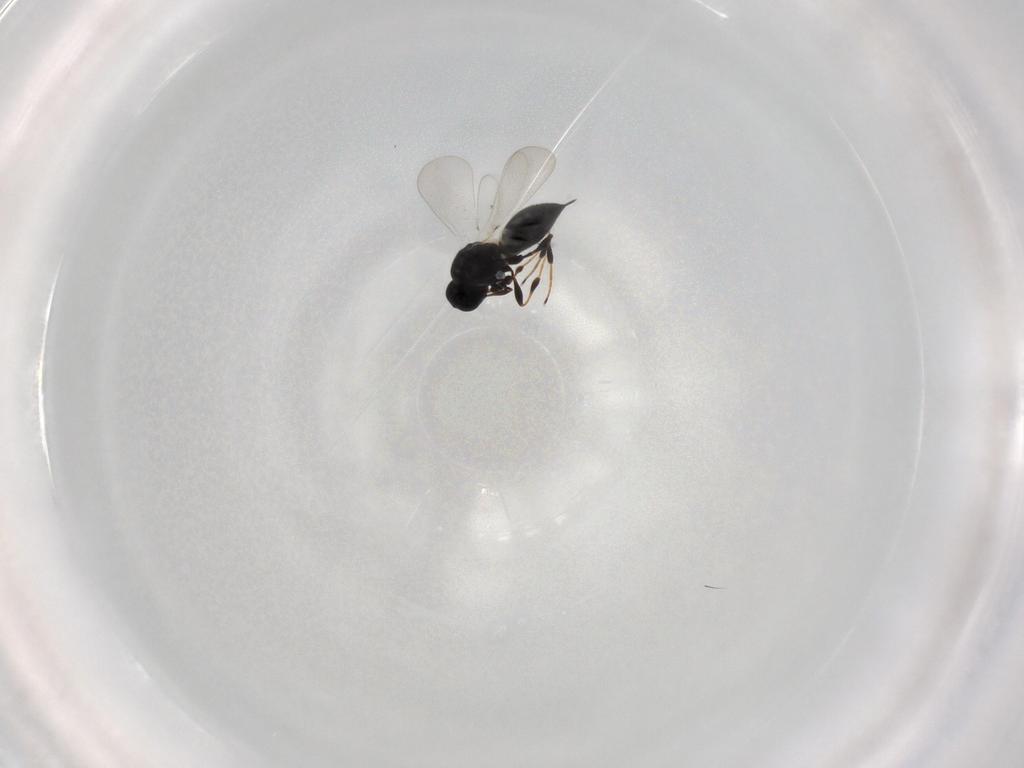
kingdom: Animalia
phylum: Arthropoda
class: Insecta
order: Hymenoptera
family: Platygastridae
